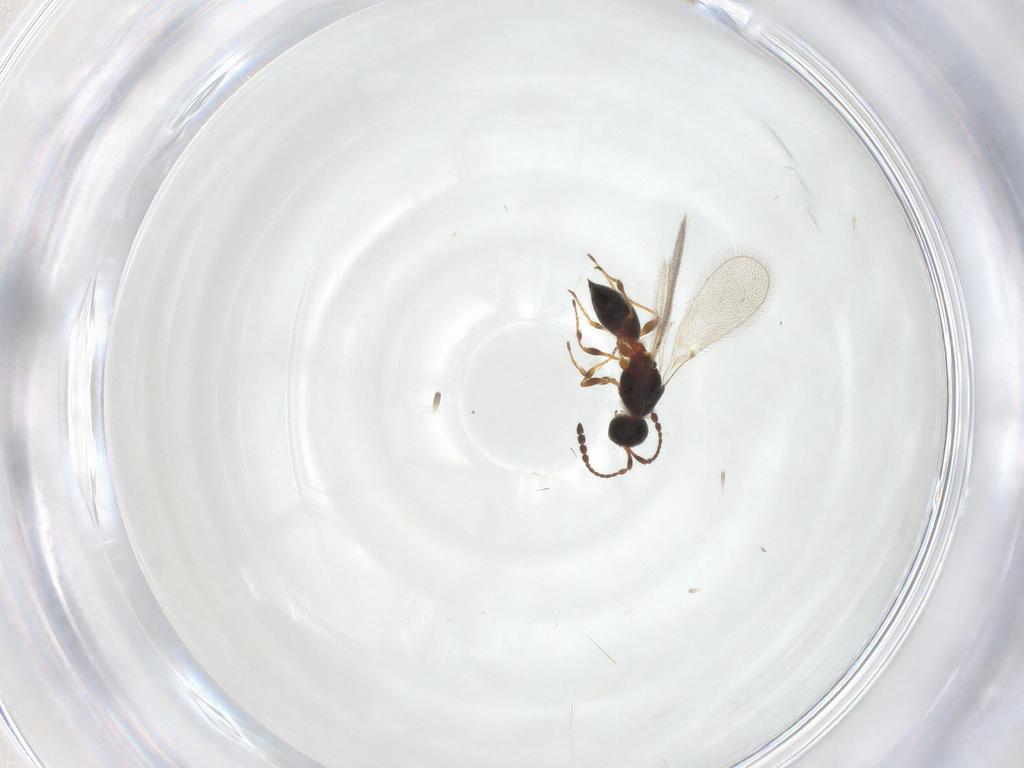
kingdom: Animalia
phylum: Arthropoda
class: Insecta
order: Hymenoptera
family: Diapriidae
